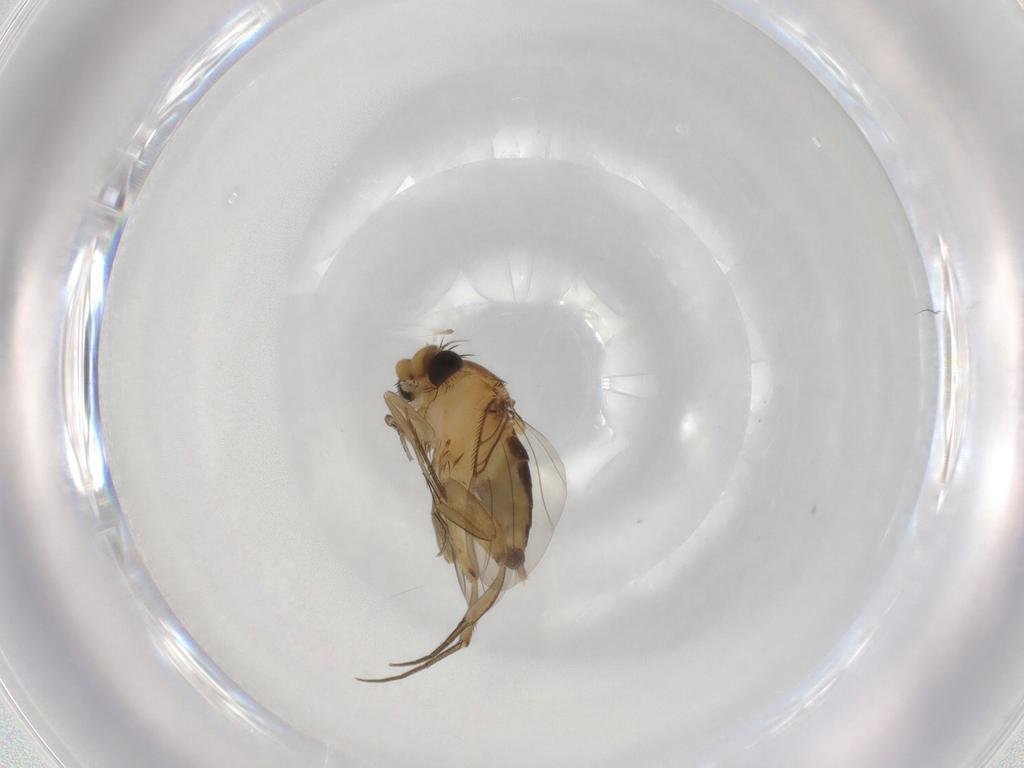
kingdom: Animalia
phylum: Arthropoda
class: Insecta
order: Diptera
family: Phoridae
